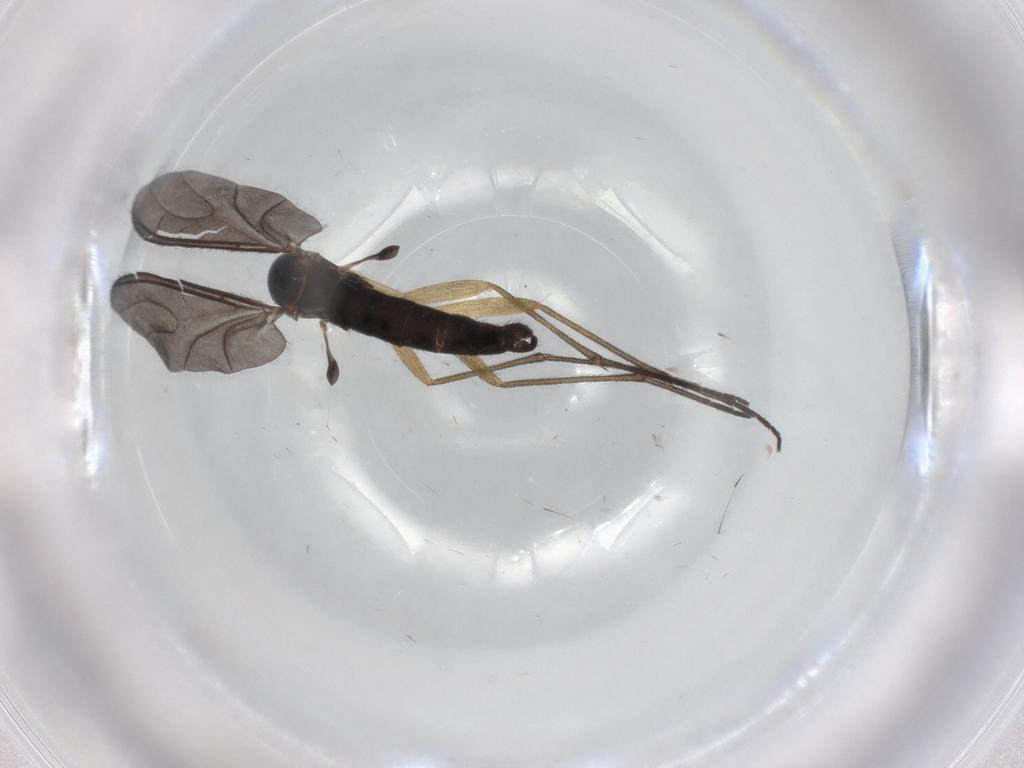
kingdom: Animalia
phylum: Arthropoda
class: Insecta
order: Diptera
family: Sciaridae
